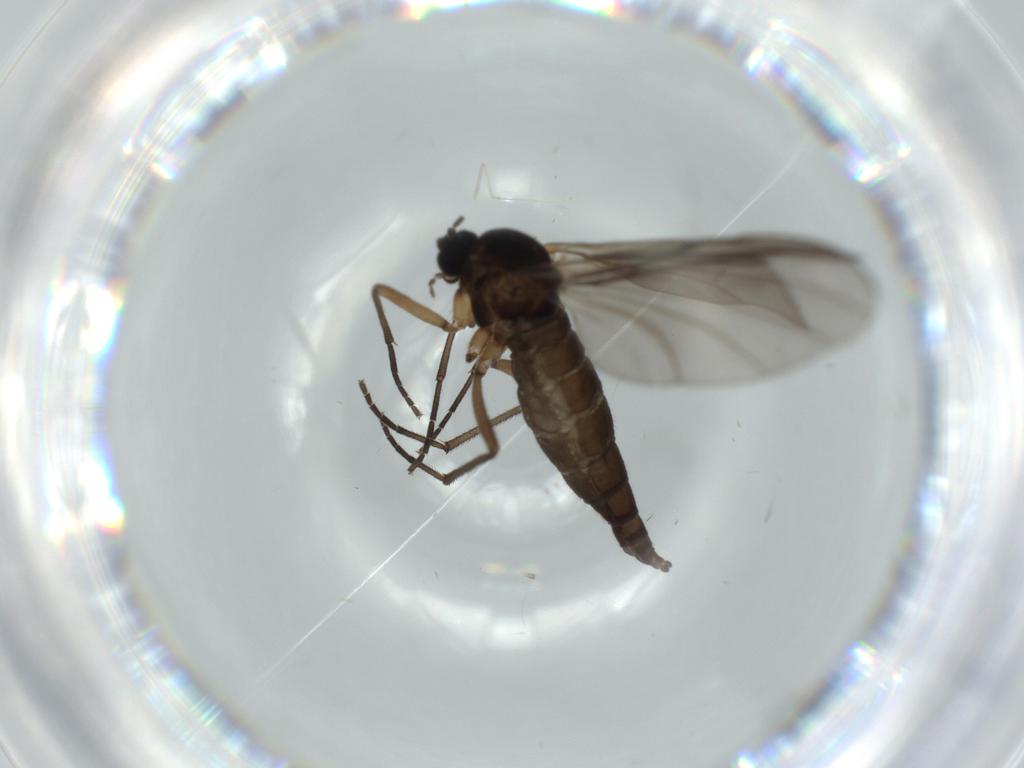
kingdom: Animalia
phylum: Arthropoda
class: Insecta
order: Diptera
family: Sciaridae
